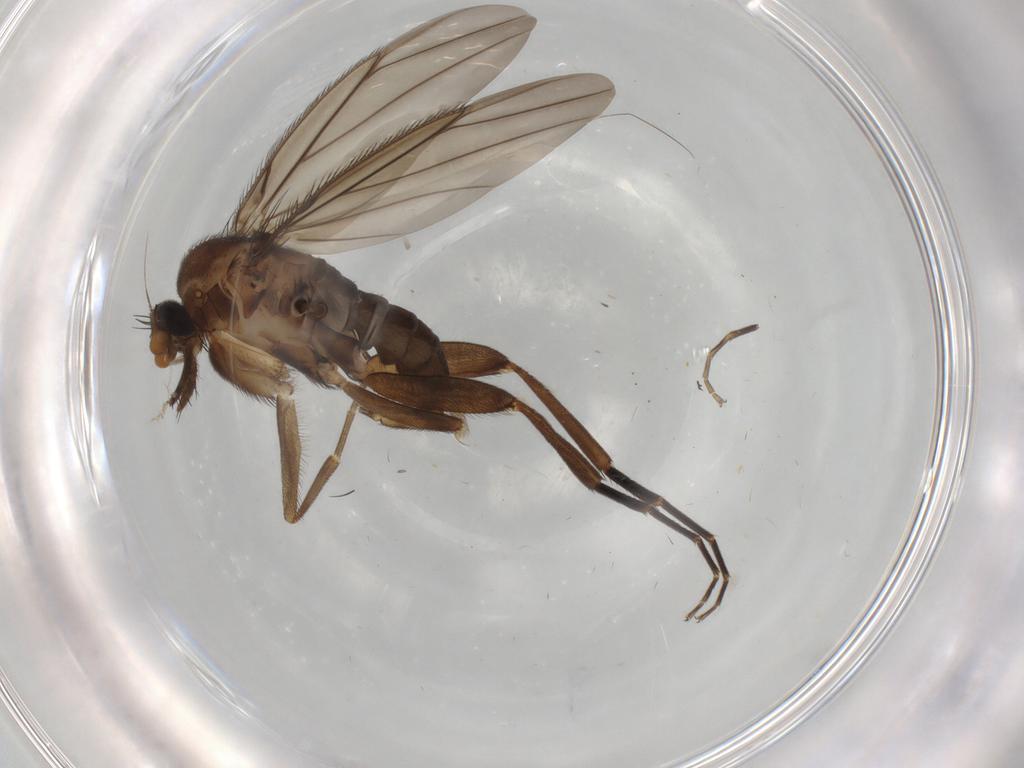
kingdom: Animalia
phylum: Arthropoda
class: Insecta
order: Diptera
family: Phoridae
